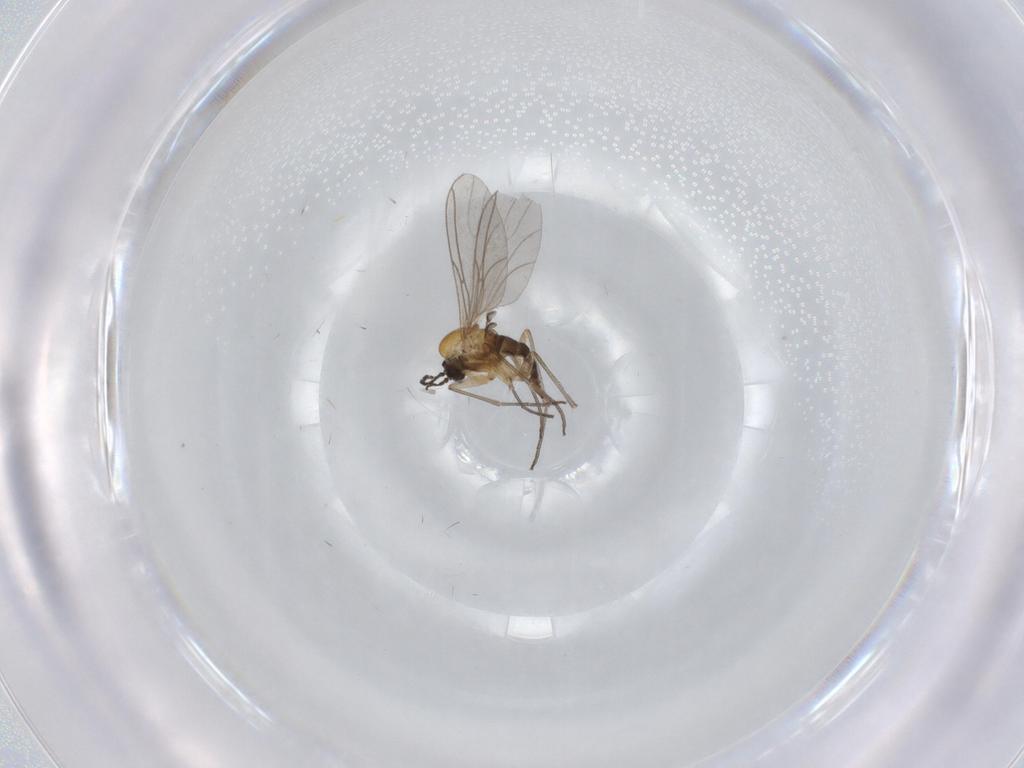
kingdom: Animalia
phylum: Arthropoda
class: Insecta
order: Diptera
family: Sciaridae
